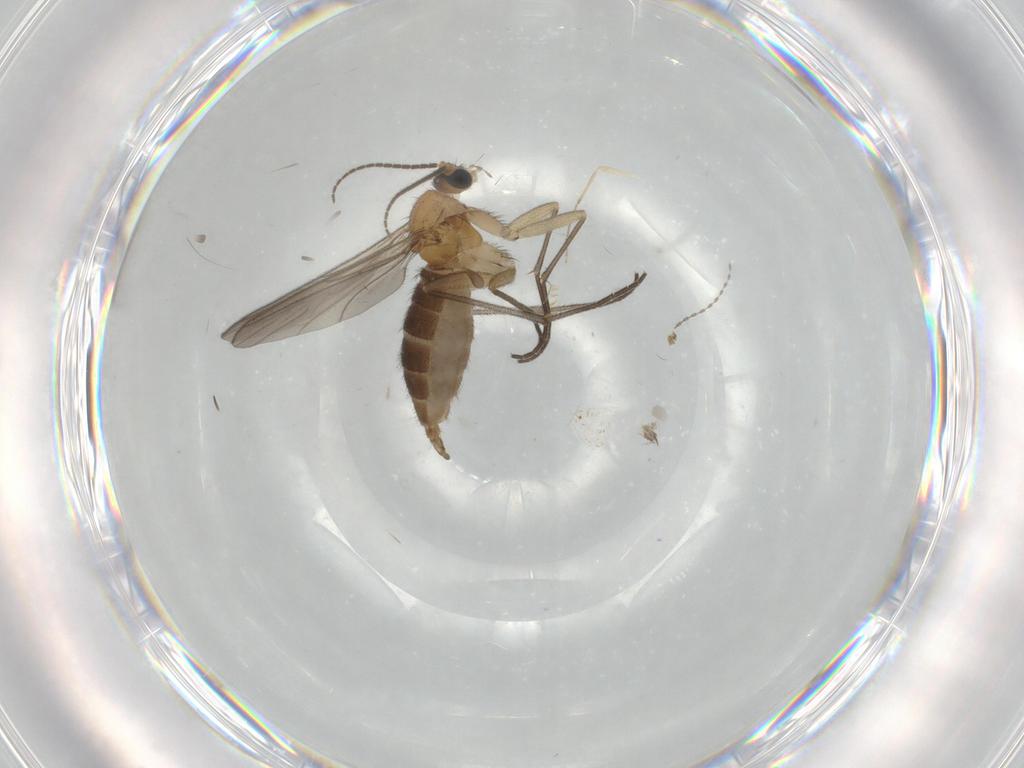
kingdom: Animalia
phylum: Arthropoda
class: Insecta
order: Diptera
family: Sciaridae
